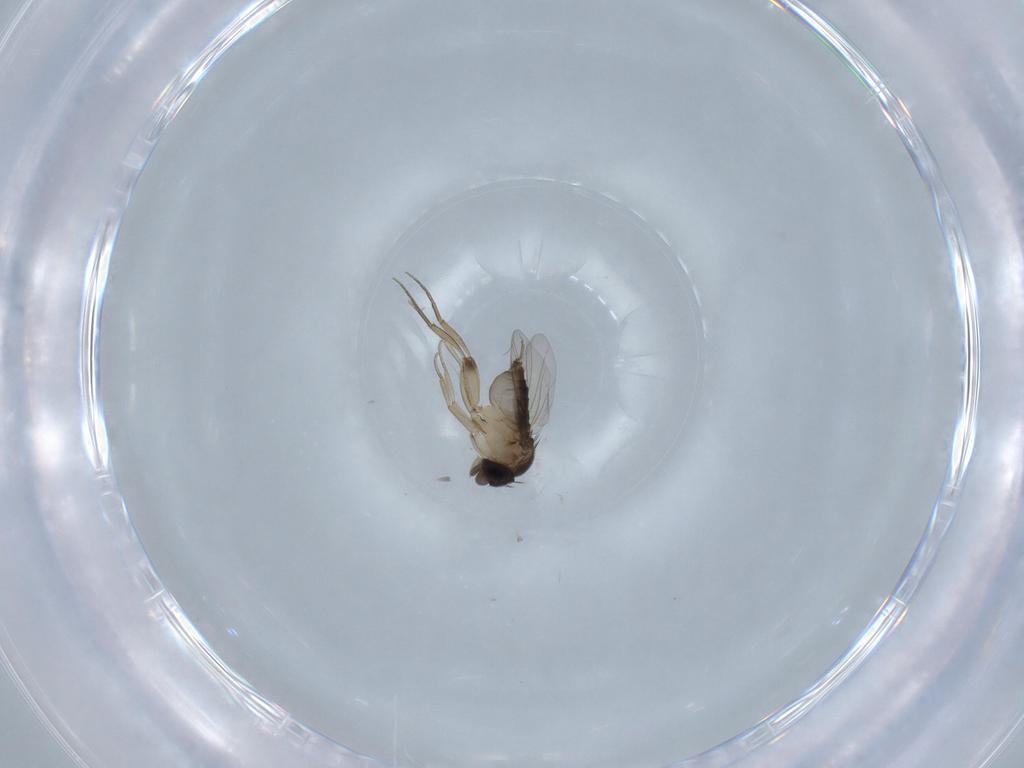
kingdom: Animalia
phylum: Arthropoda
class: Insecta
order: Diptera
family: Phoridae
